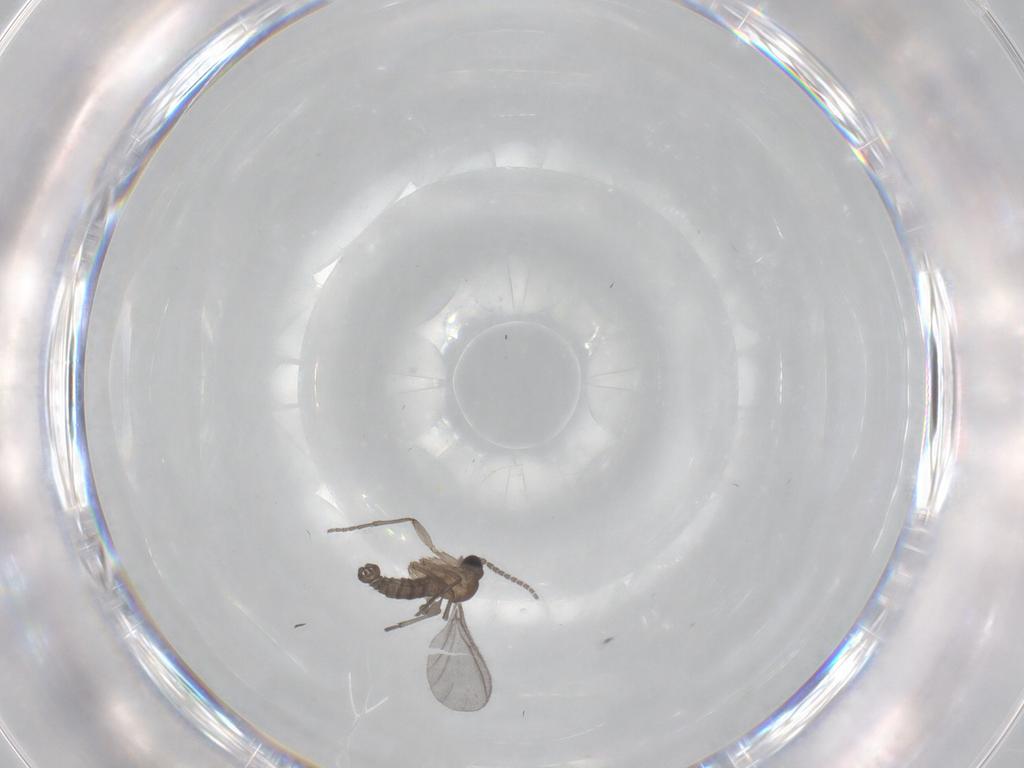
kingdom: Animalia
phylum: Arthropoda
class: Insecta
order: Diptera
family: Sciaridae
